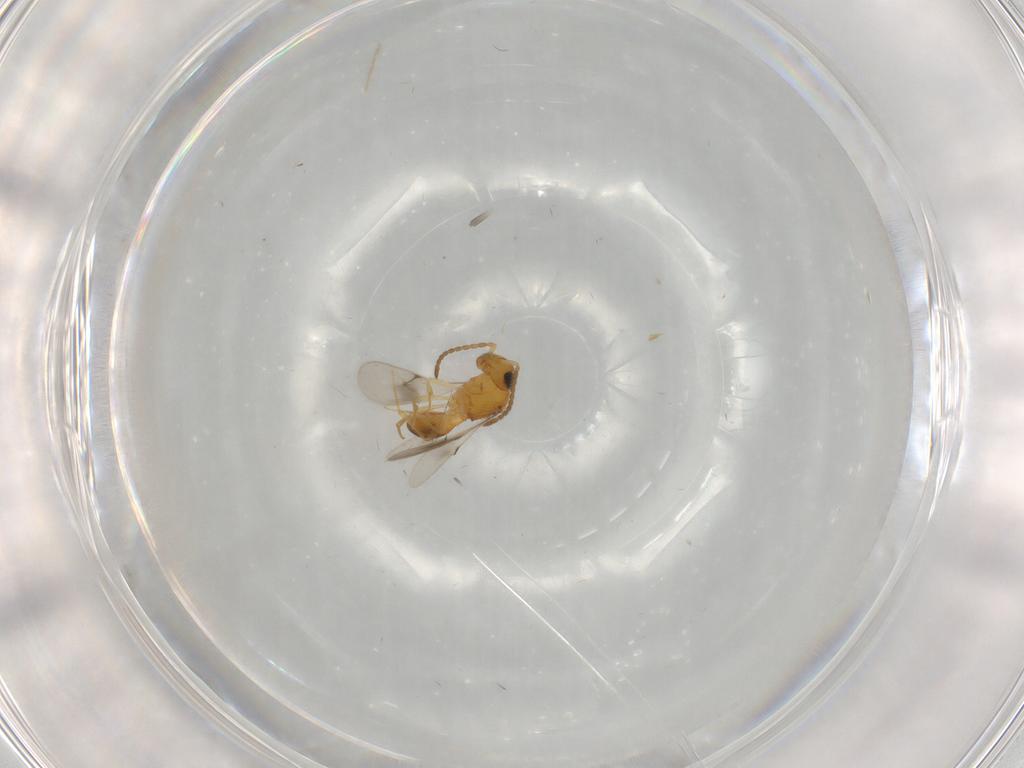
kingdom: Animalia
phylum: Arthropoda
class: Insecta
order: Hymenoptera
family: Scelionidae
